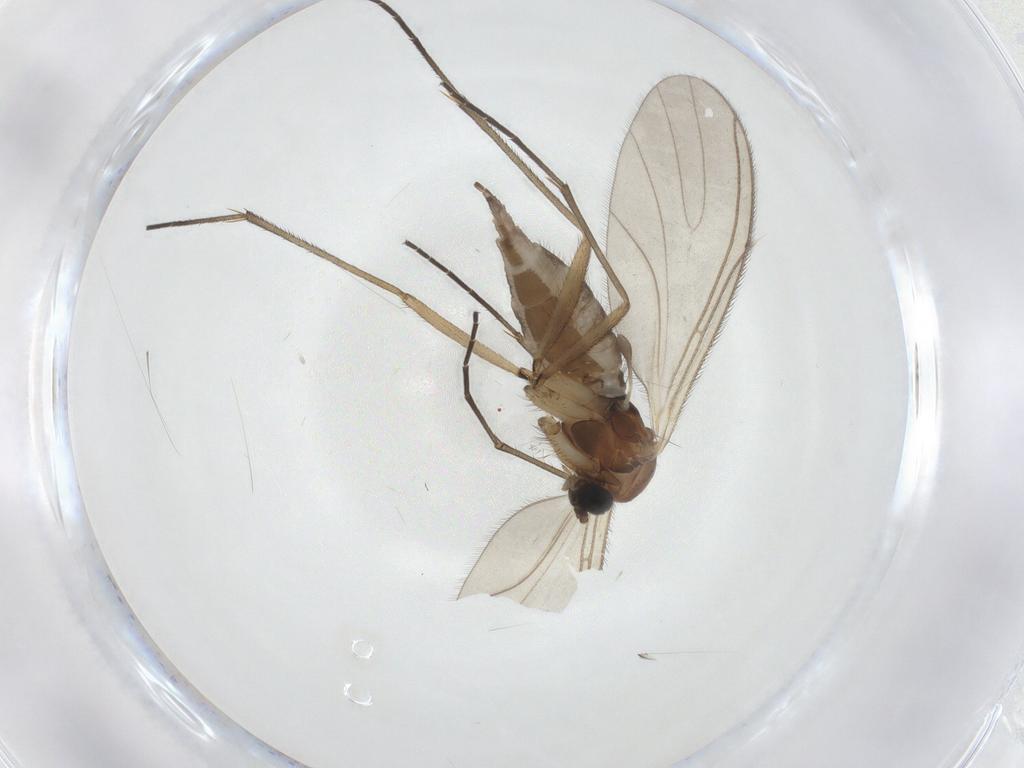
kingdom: Animalia
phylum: Arthropoda
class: Insecta
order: Diptera
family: Sciaridae
